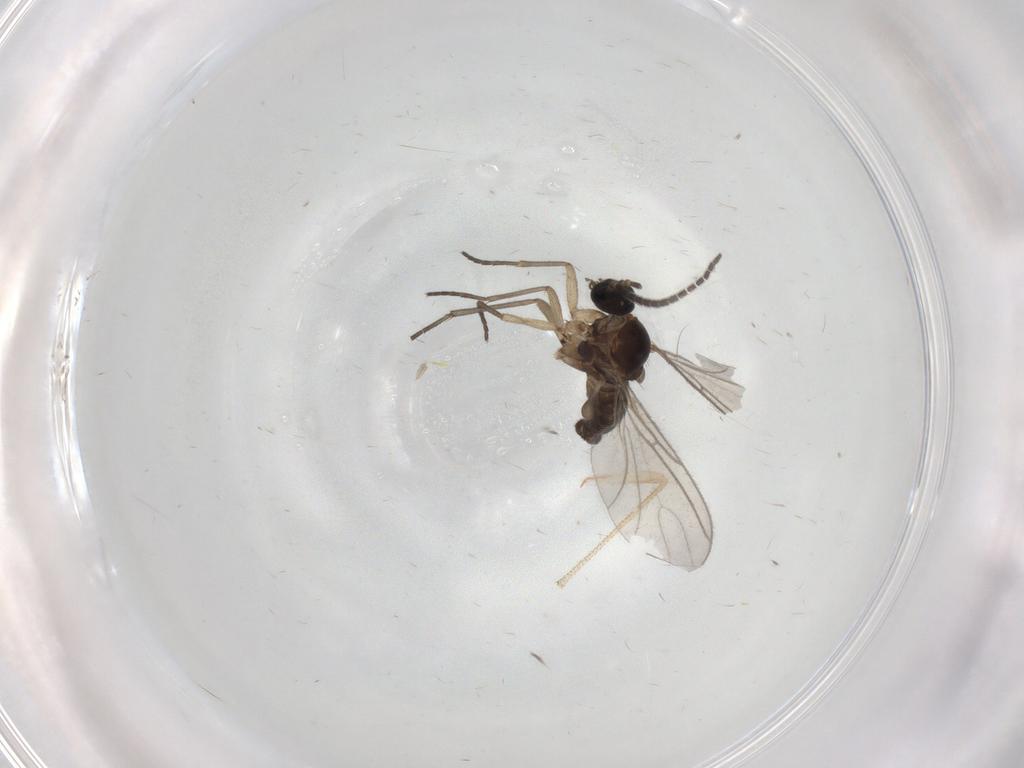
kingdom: Animalia
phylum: Arthropoda
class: Insecta
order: Diptera
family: Sciaridae
